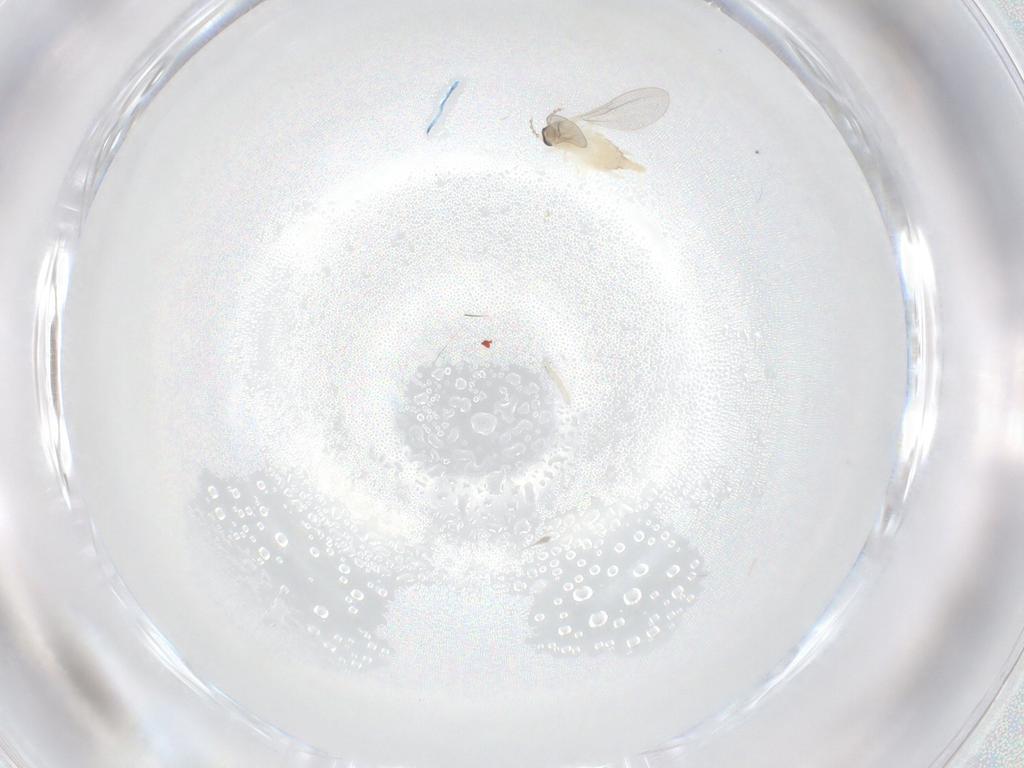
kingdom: Animalia
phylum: Arthropoda
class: Insecta
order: Diptera
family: Cecidomyiidae
